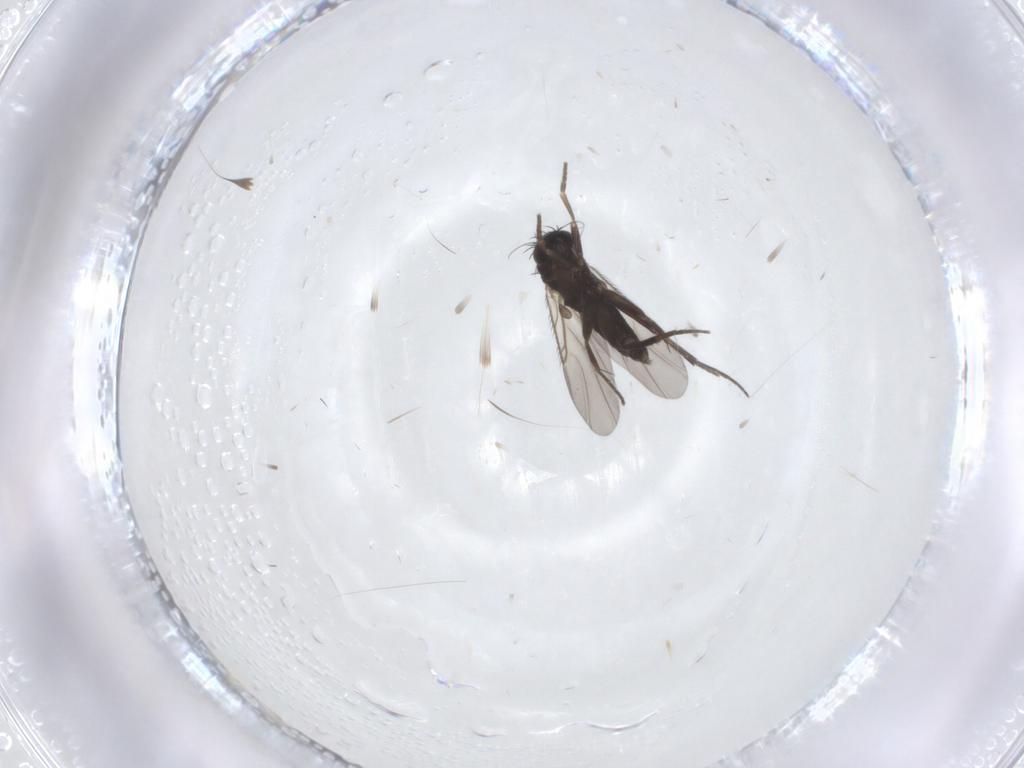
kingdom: Animalia
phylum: Arthropoda
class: Insecta
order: Diptera
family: Phoridae
